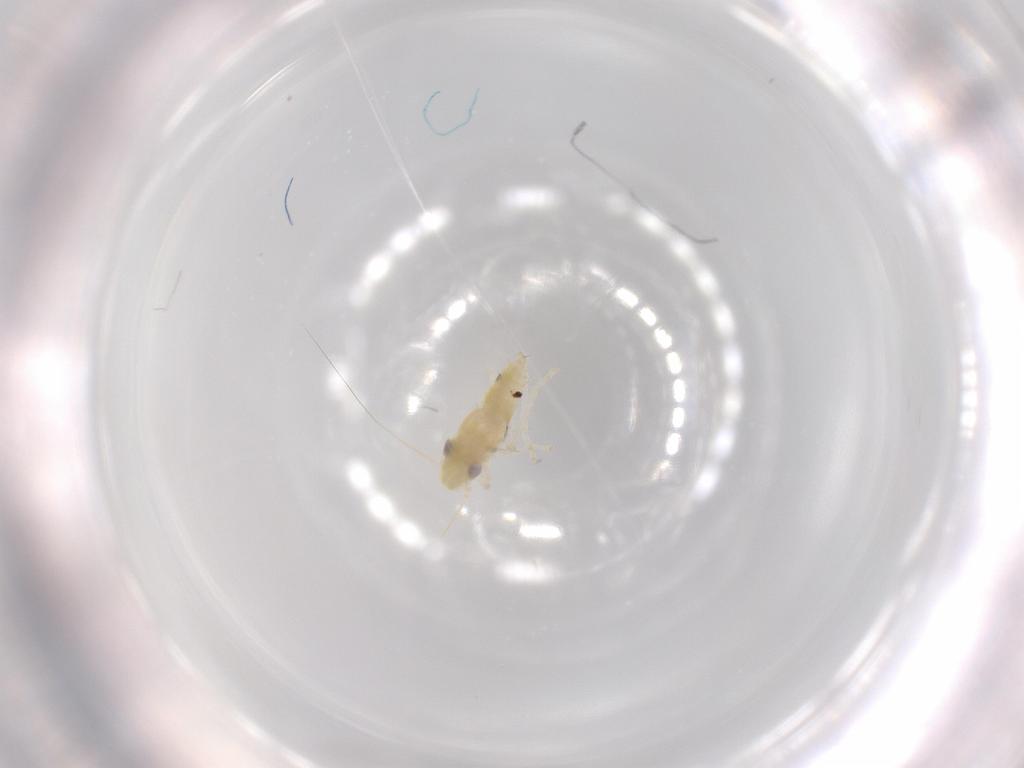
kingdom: Animalia
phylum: Arthropoda
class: Insecta
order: Hemiptera
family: Cicadellidae
